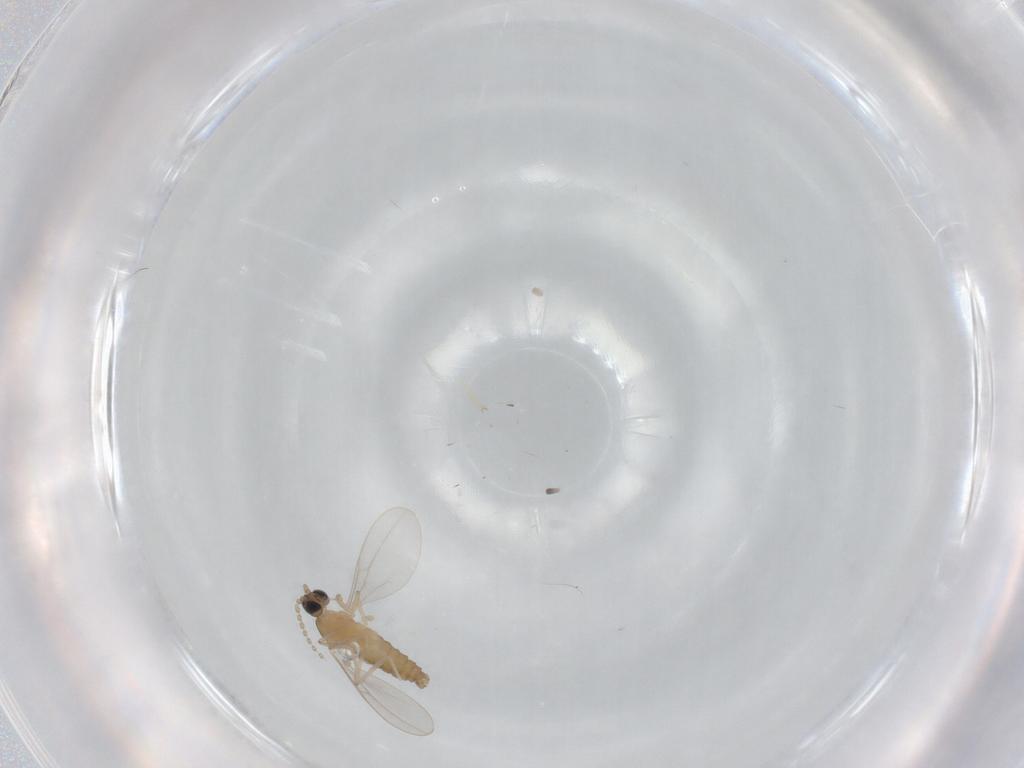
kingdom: Animalia
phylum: Arthropoda
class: Insecta
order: Diptera
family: Cecidomyiidae
